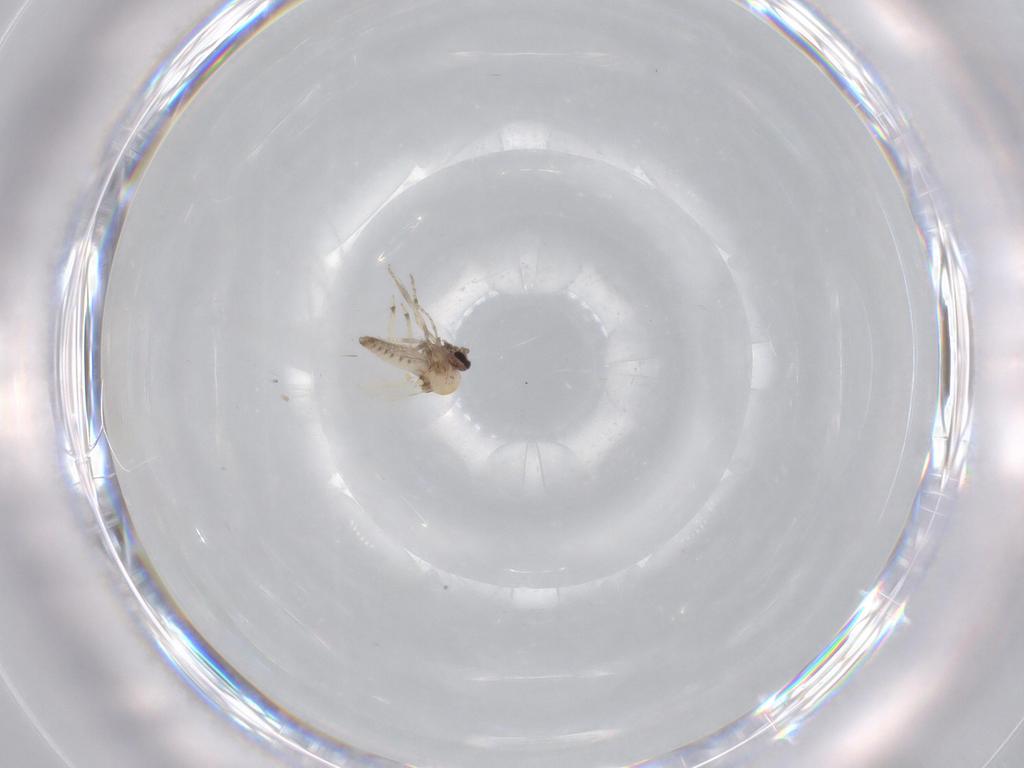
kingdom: Animalia
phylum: Arthropoda
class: Insecta
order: Diptera
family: Ceratopogonidae
